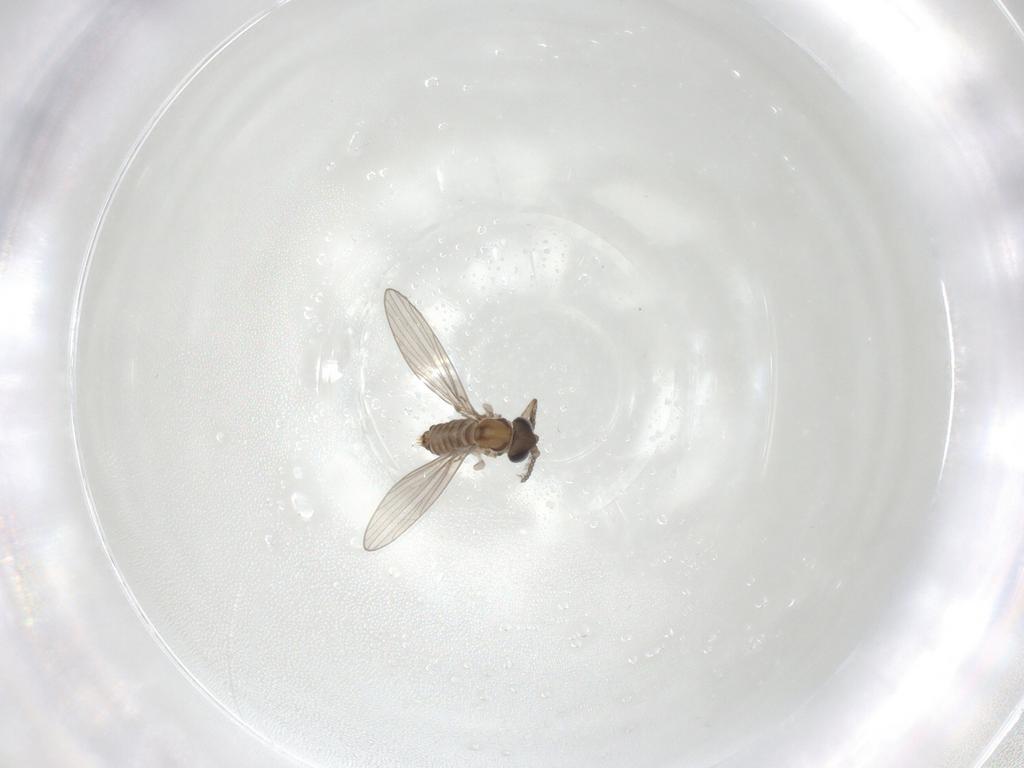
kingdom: Animalia
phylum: Arthropoda
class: Insecta
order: Diptera
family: Psychodidae
